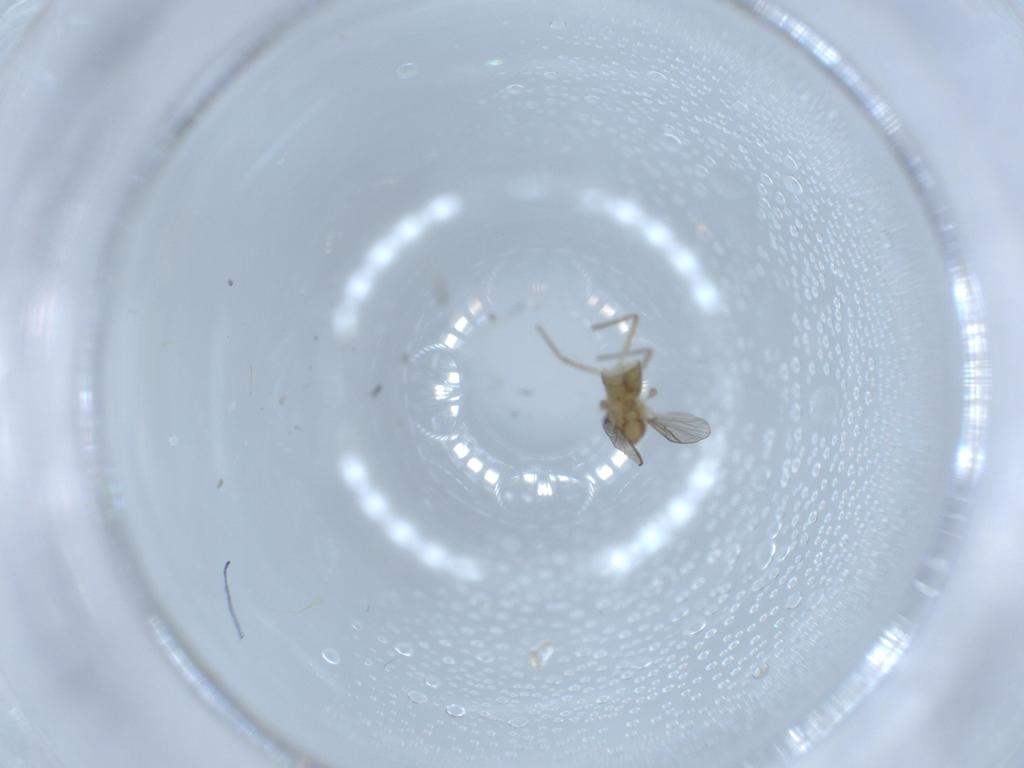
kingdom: Animalia
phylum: Arthropoda
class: Insecta
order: Diptera
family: Chironomidae
